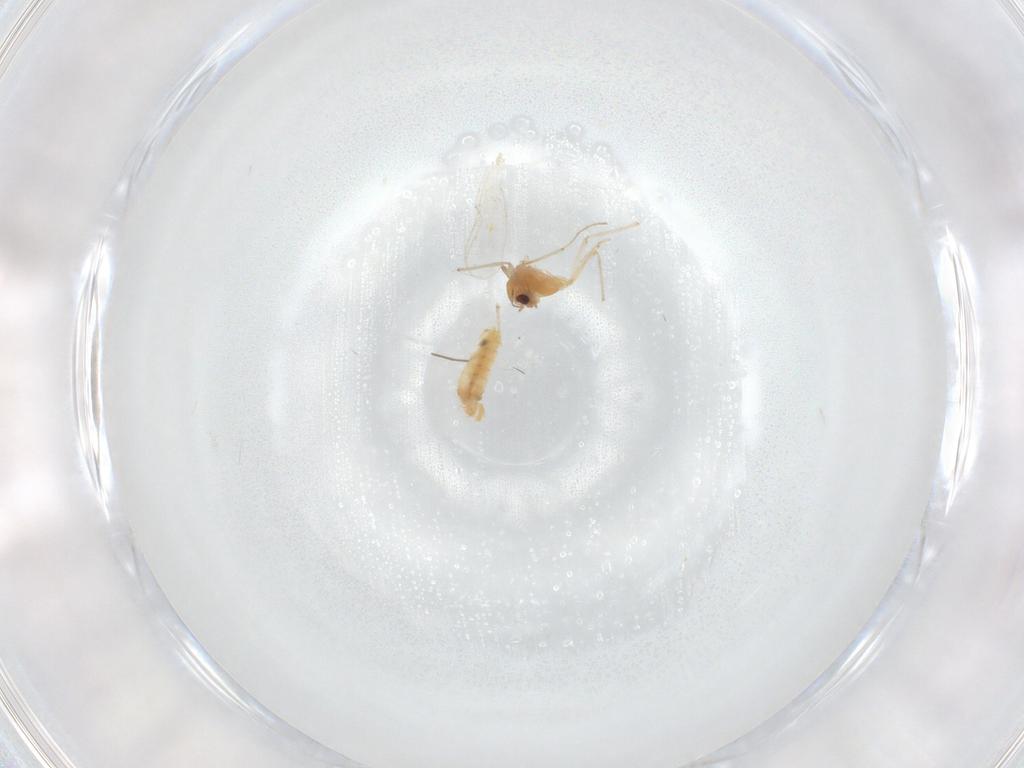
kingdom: Animalia
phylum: Arthropoda
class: Insecta
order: Diptera
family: Chironomidae
